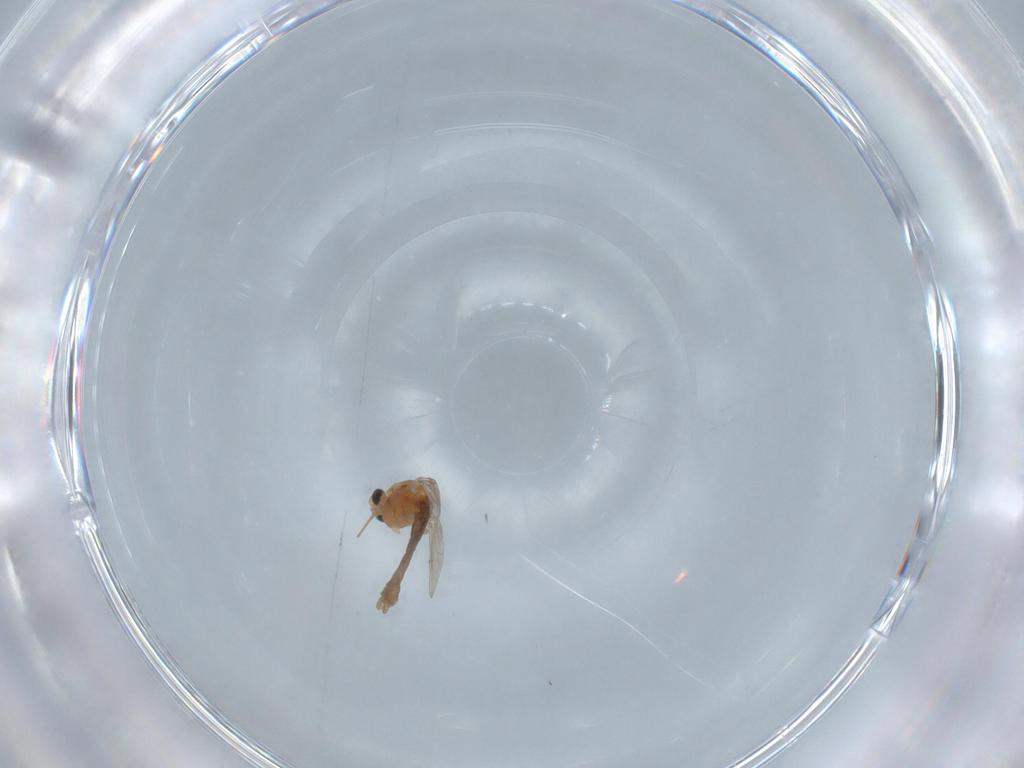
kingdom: Animalia
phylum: Arthropoda
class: Insecta
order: Diptera
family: Chironomidae
